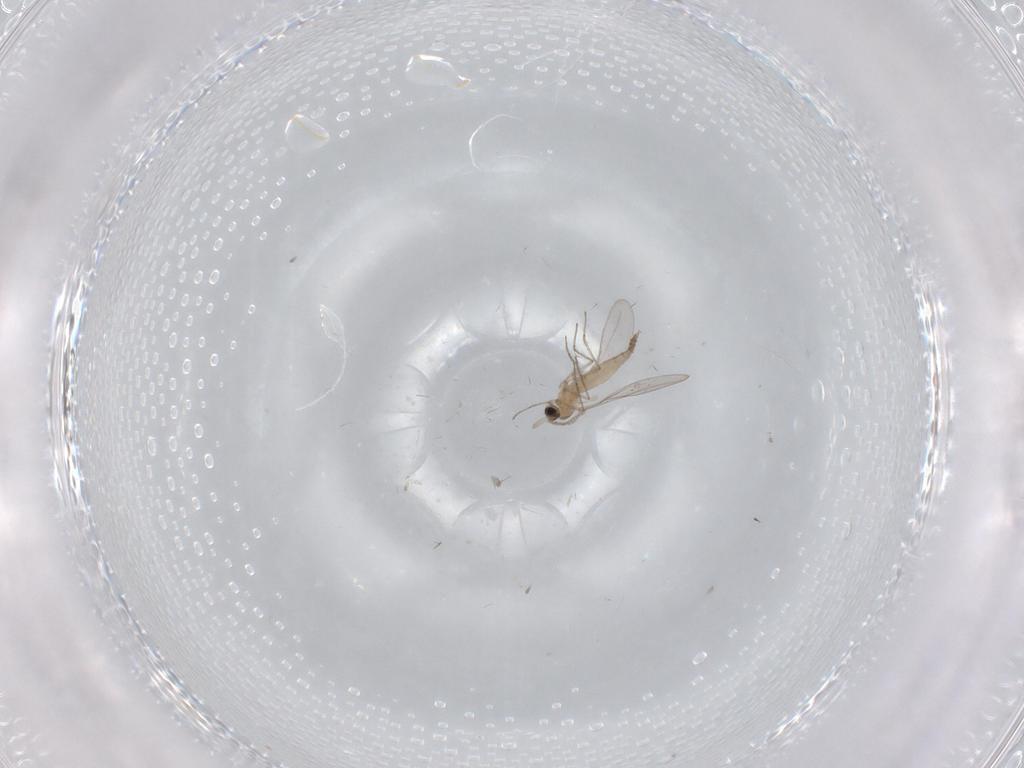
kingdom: Animalia
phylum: Arthropoda
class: Insecta
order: Diptera
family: Cecidomyiidae
